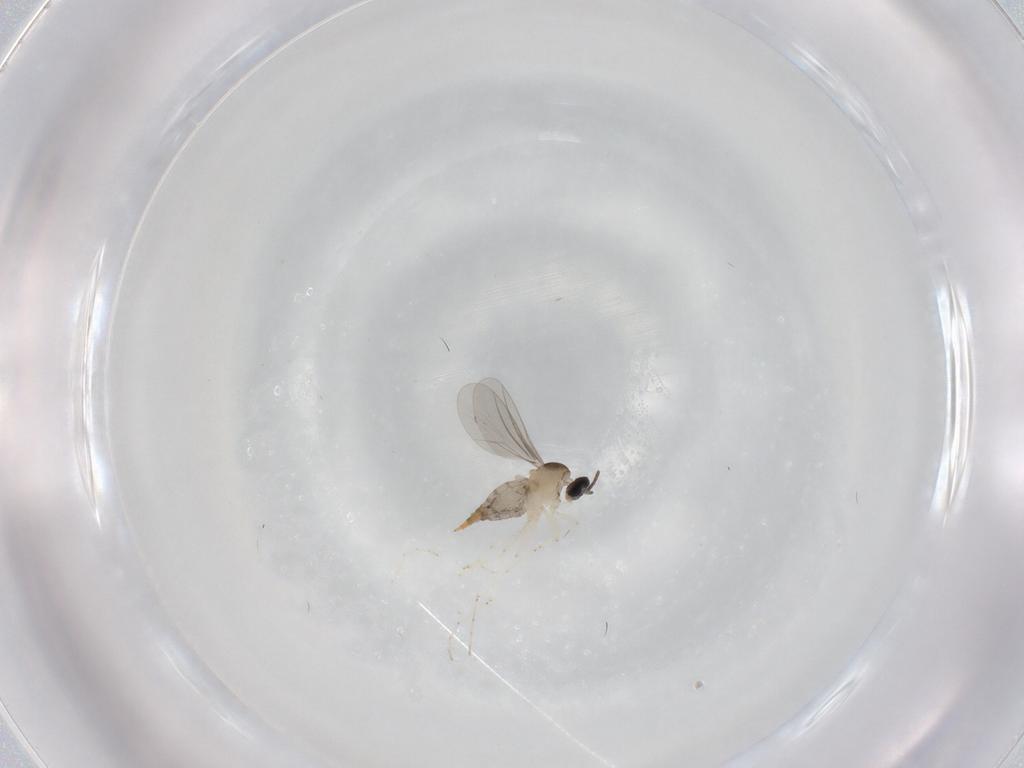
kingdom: Animalia
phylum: Arthropoda
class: Insecta
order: Diptera
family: Cecidomyiidae
